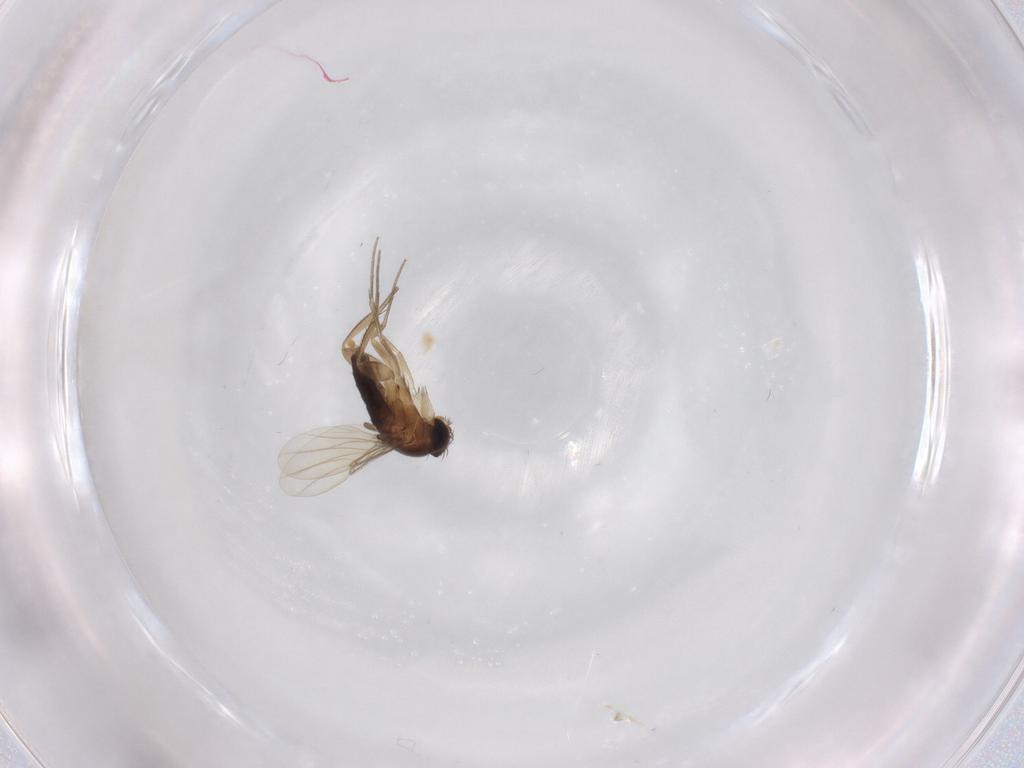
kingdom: Animalia
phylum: Arthropoda
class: Insecta
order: Diptera
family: Phoridae
